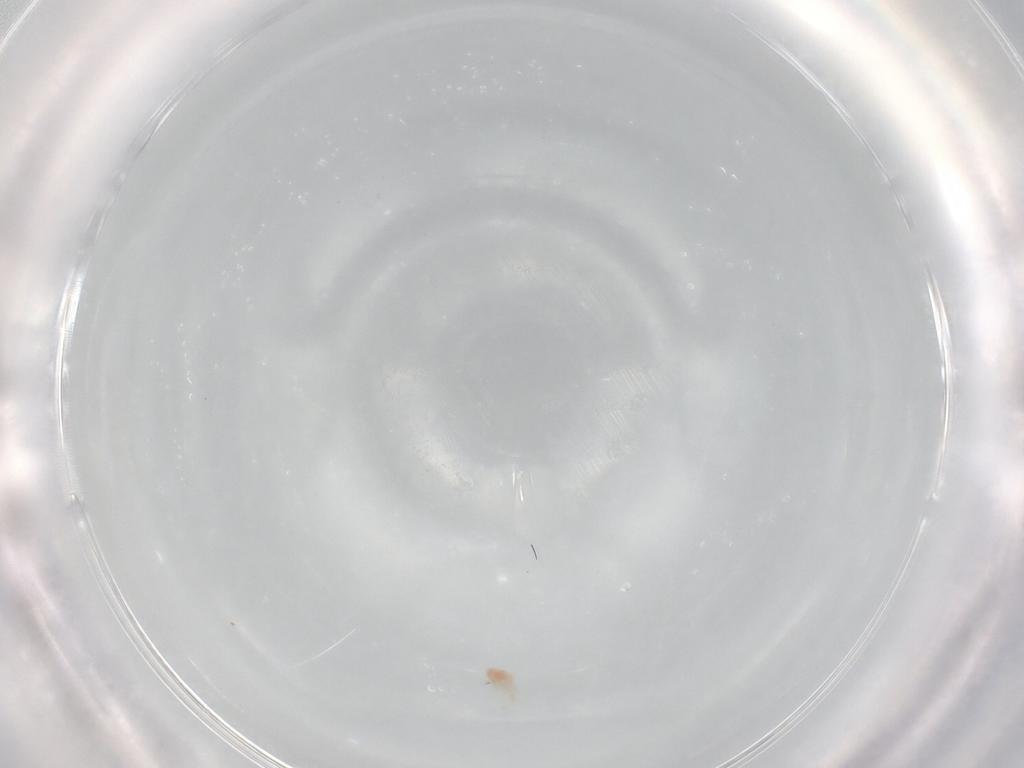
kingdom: Animalia
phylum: Arthropoda
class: Arachnida
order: Trombidiformes
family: Erythraeidae
